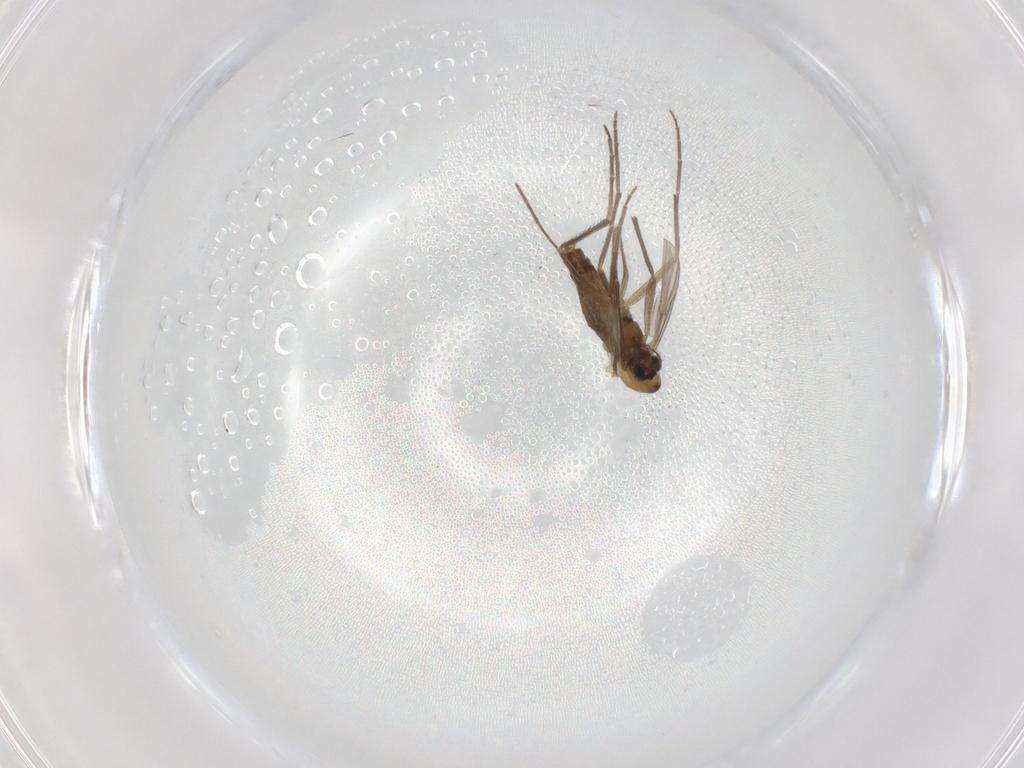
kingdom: Animalia
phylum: Arthropoda
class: Insecta
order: Diptera
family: Chironomidae
